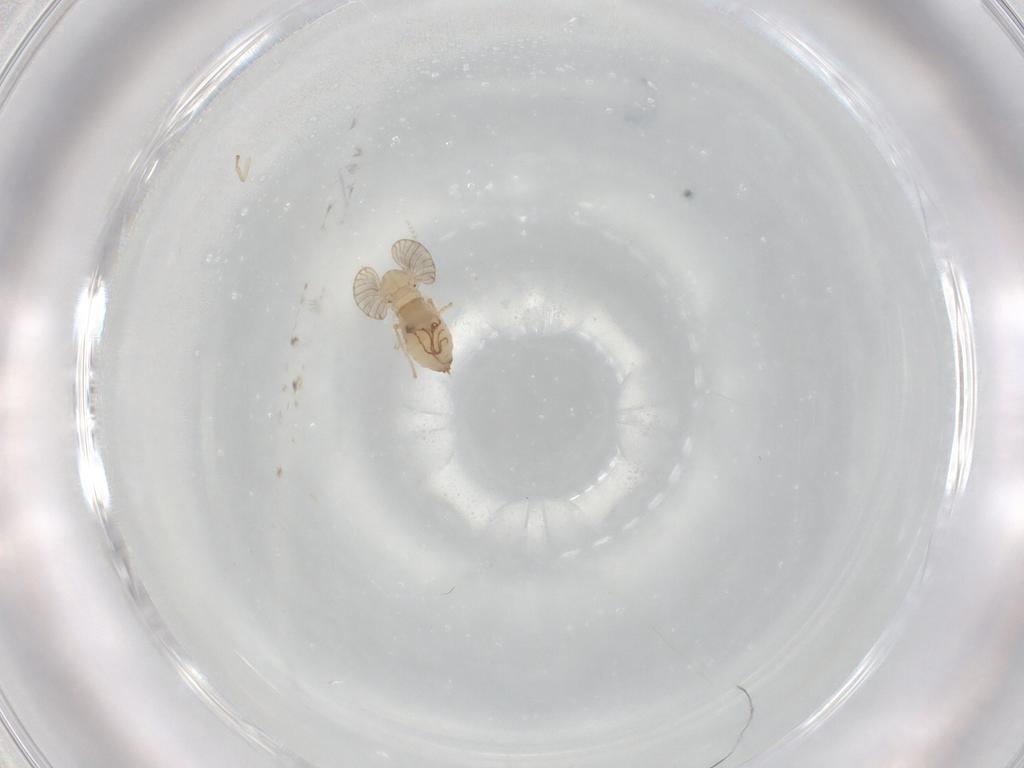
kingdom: Animalia
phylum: Arthropoda
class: Insecta
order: Diptera
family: Psychodidae
